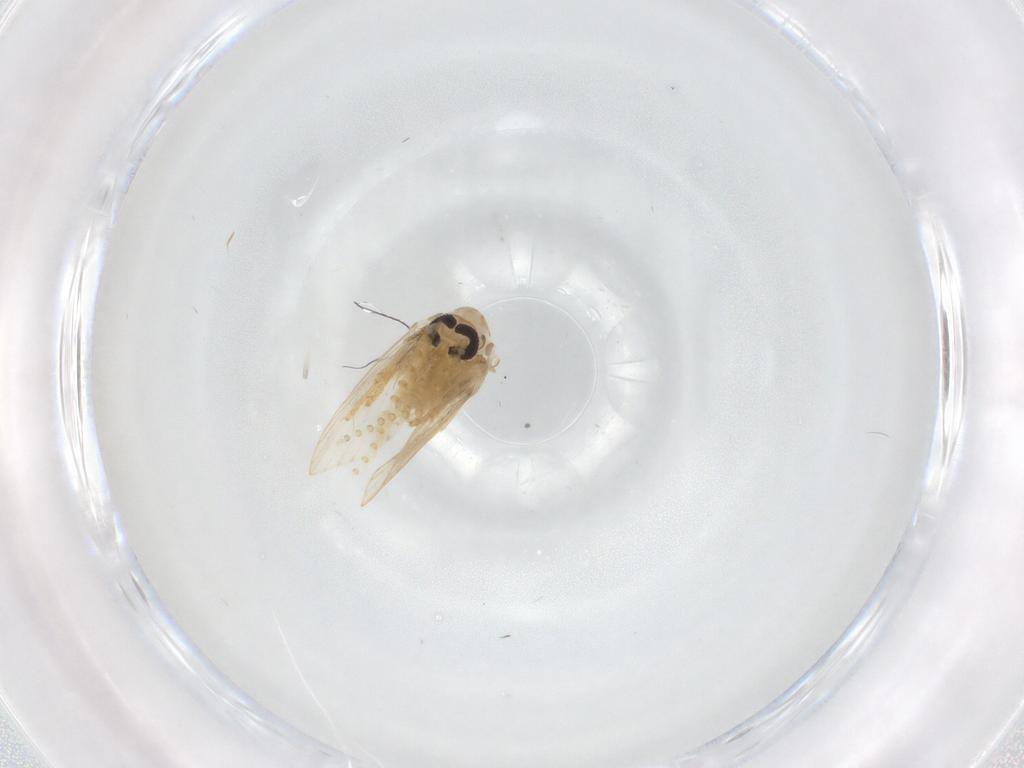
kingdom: Animalia
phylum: Arthropoda
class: Insecta
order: Diptera
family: Psychodidae
